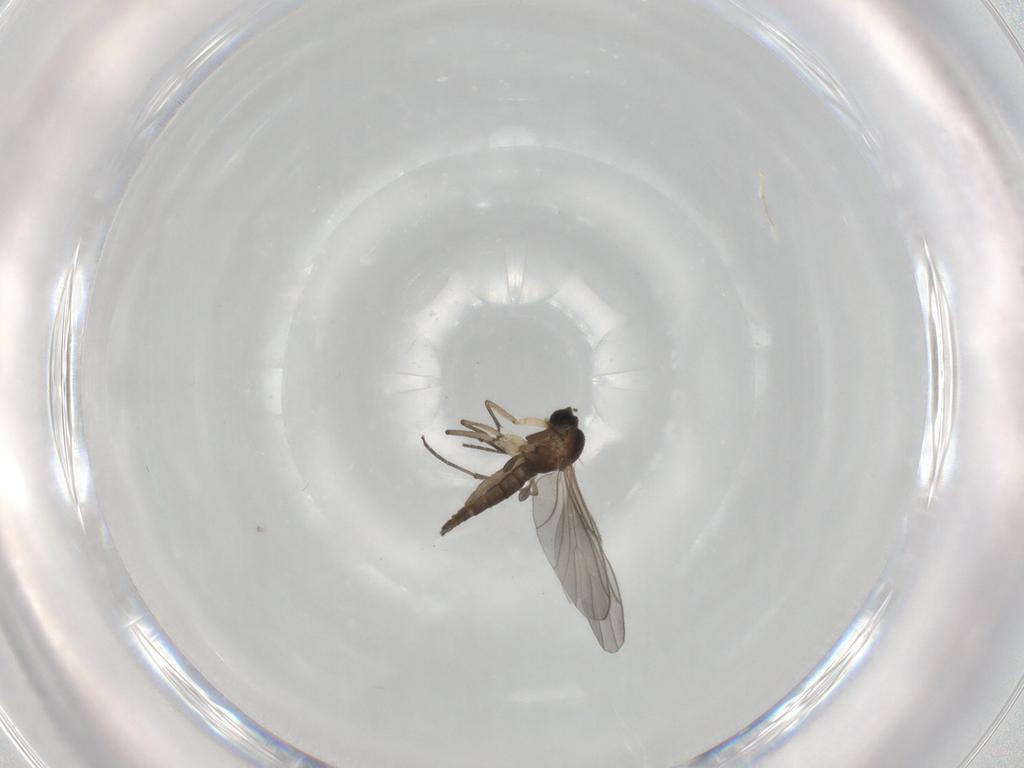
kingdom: Animalia
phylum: Arthropoda
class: Insecta
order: Diptera
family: Sciaridae
